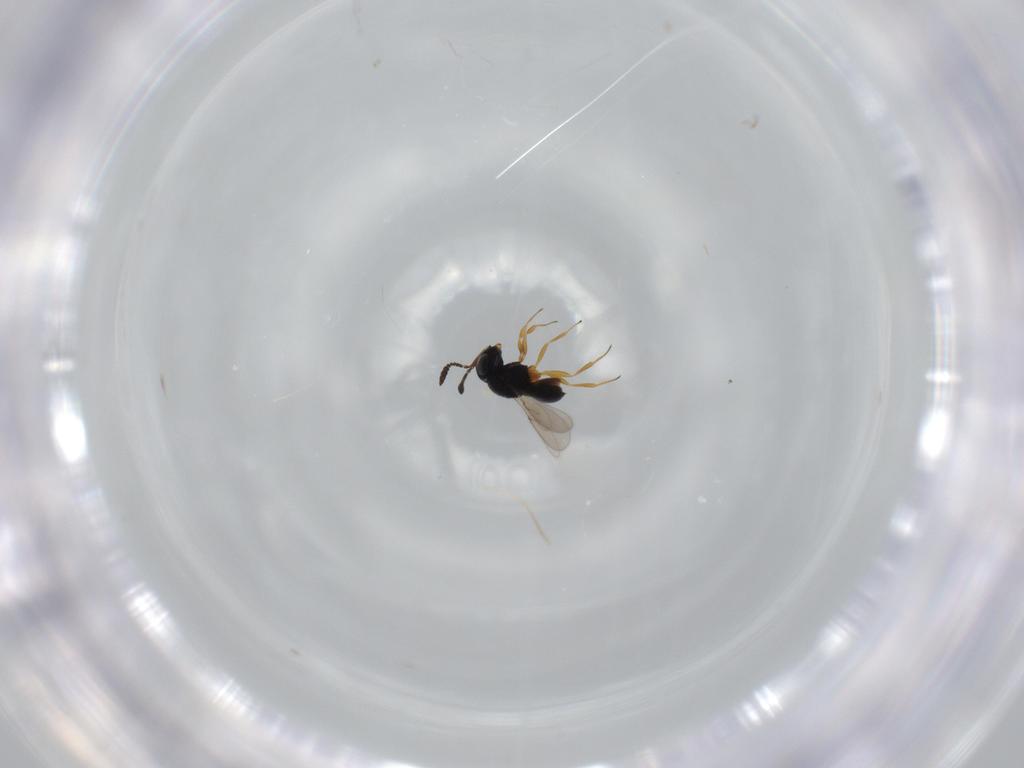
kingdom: Animalia
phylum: Arthropoda
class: Insecta
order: Hymenoptera
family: Scelionidae
